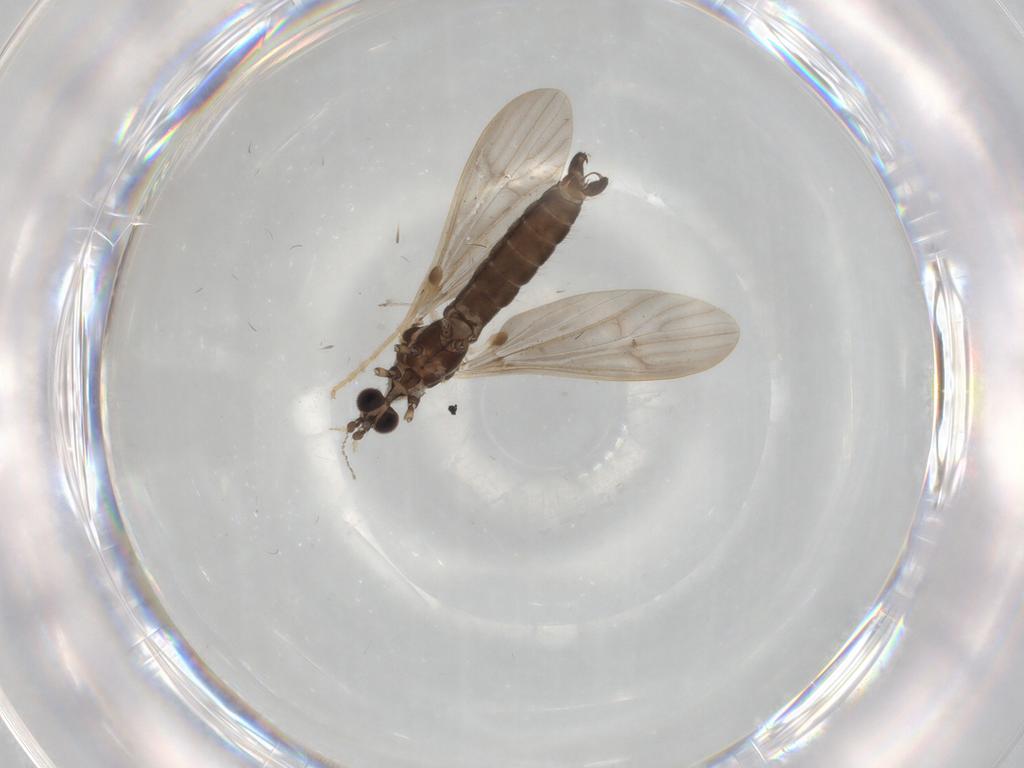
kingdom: Animalia
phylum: Arthropoda
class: Insecta
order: Diptera
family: Limoniidae
